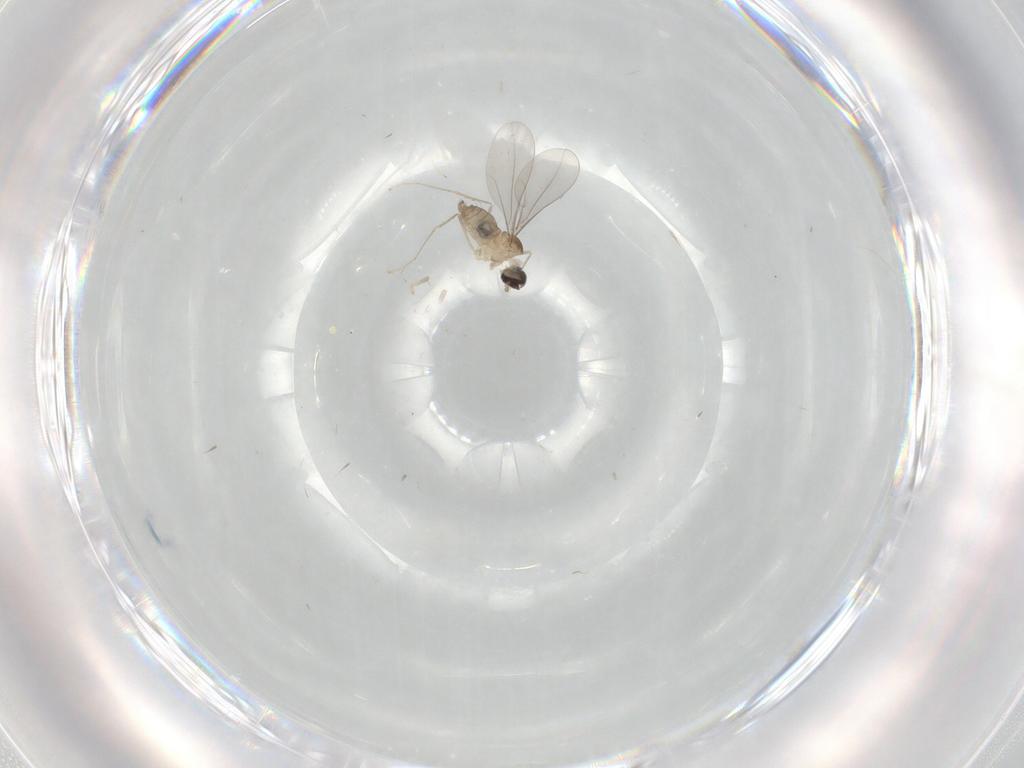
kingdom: Animalia
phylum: Arthropoda
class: Insecta
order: Diptera
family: Cecidomyiidae
